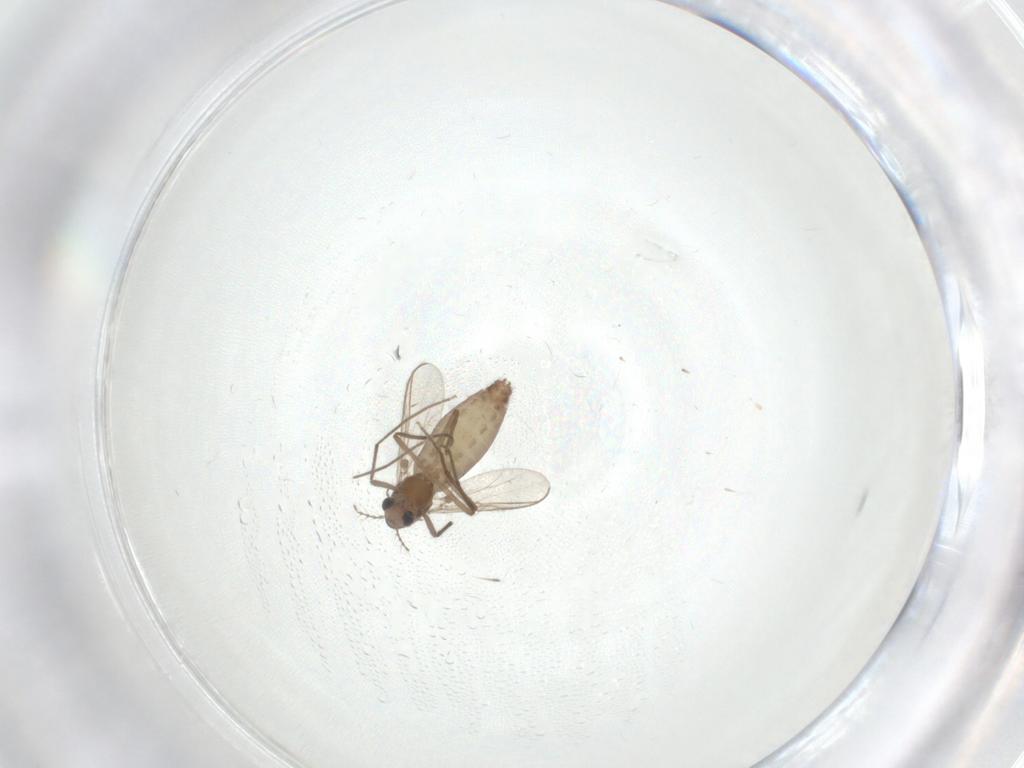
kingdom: Animalia
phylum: Arthropoda
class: Insecta
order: Diptera
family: Chironomidae
